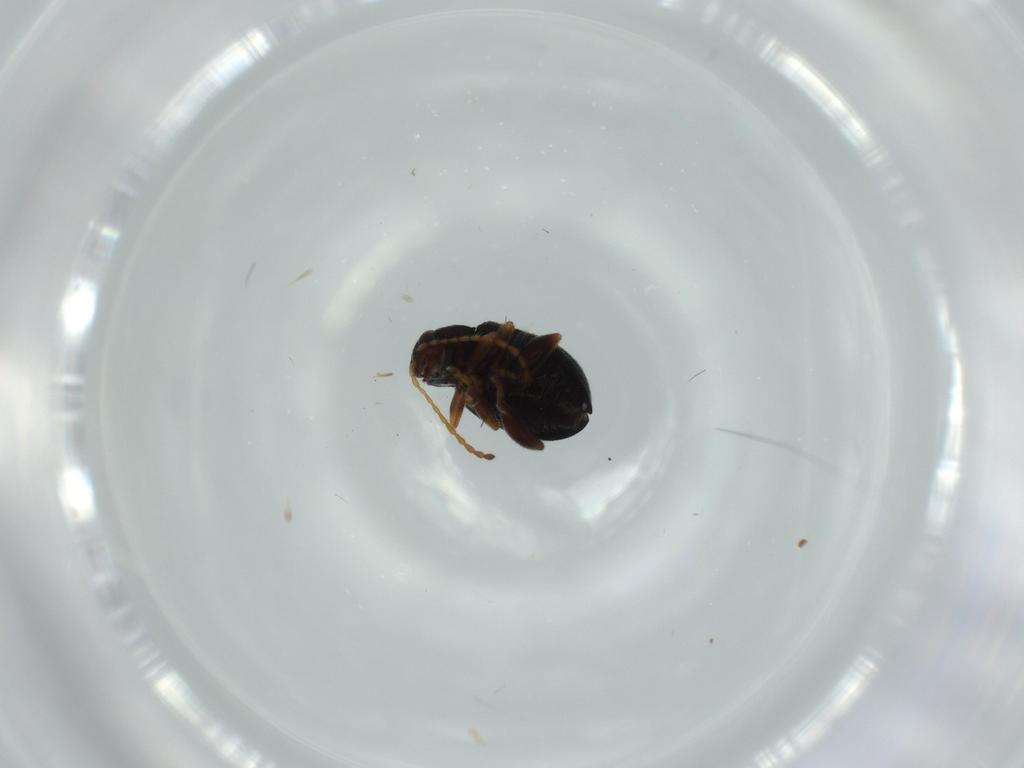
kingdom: Animalia
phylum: Arthropoda
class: Insecta
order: Coleoptera
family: Chrysomelidae
